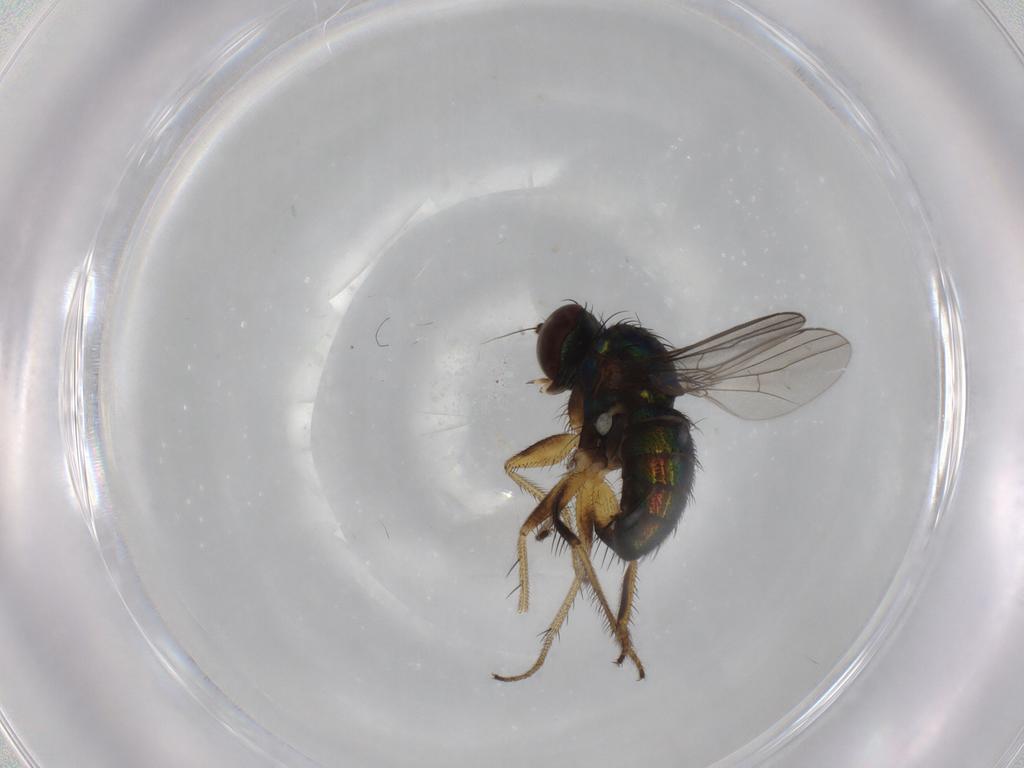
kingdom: Animalia
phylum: Arthropoda
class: Insecta
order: Diptera
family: Dolichopodidae
